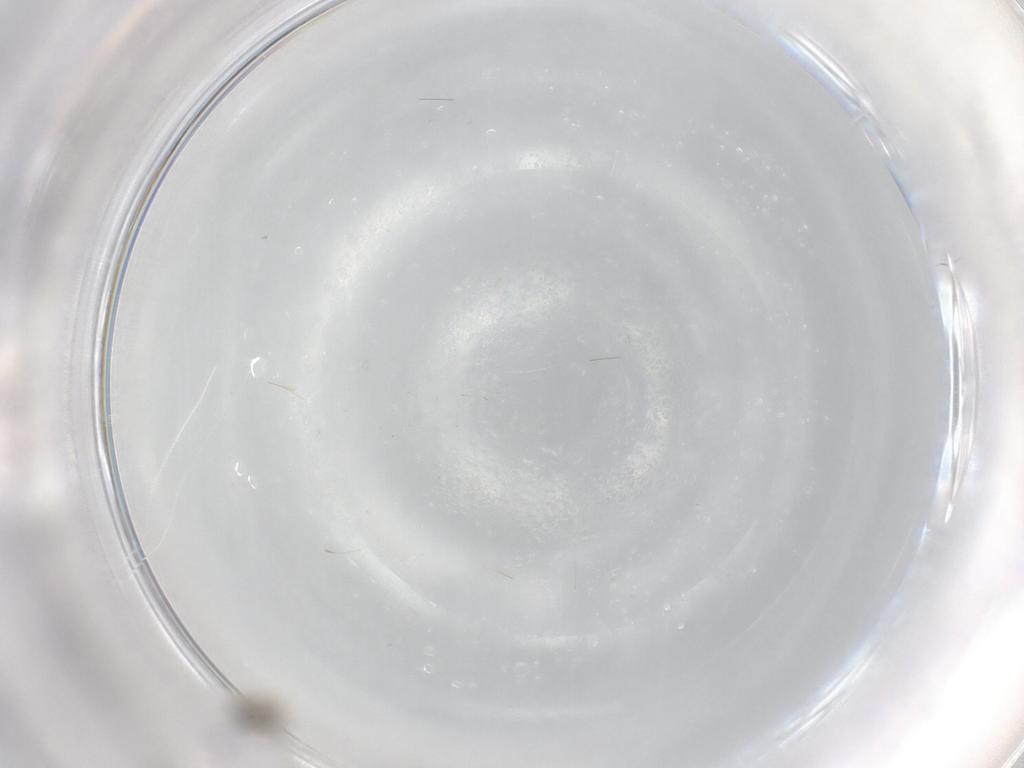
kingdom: Animalia
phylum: Arthropoda
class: Insecta
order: Diptera
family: Cecidomyiidae
